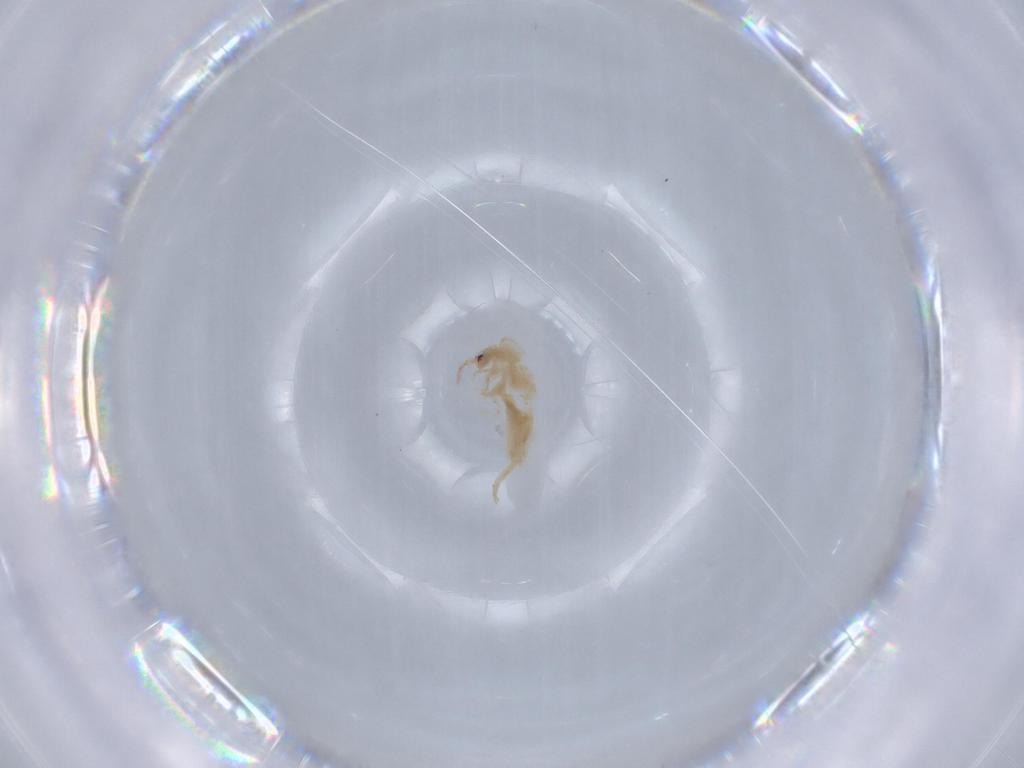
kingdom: Animalia
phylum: Arthropoda
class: Collembola
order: Entomobryomorpha
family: Entomobryidae
